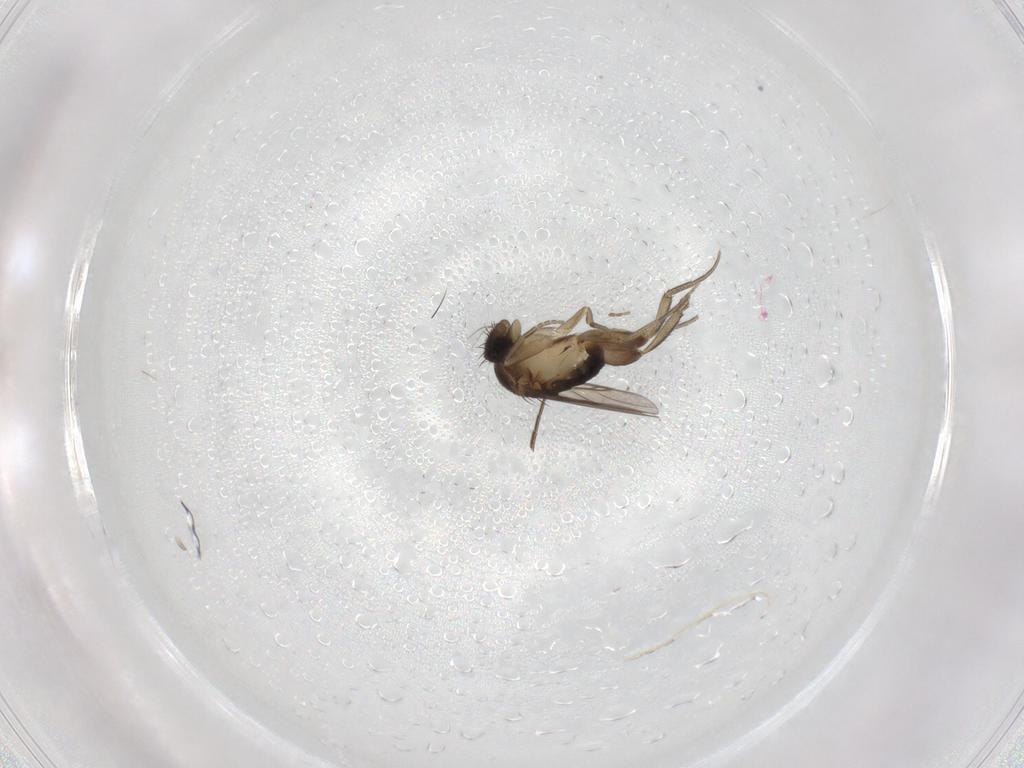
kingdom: Animalia
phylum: Arthropoda
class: Insecta
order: Diptera
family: Phoridae
